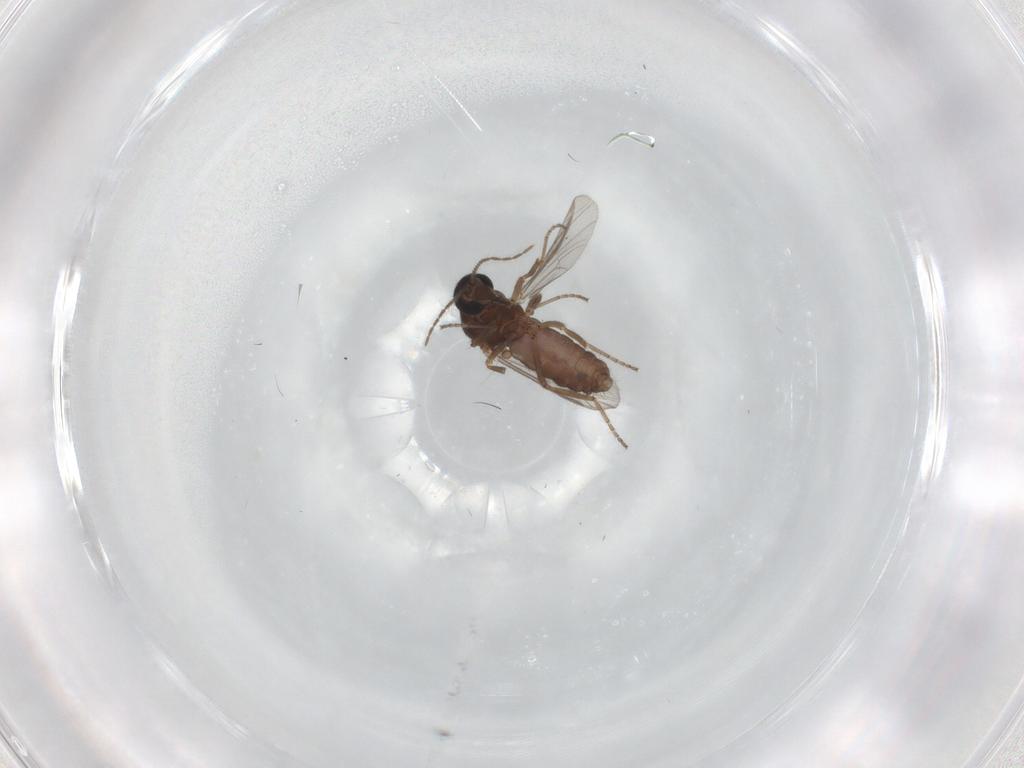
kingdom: Animalia
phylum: Arthropoda
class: Insecta
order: Diptera
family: Ceratopogonidae
